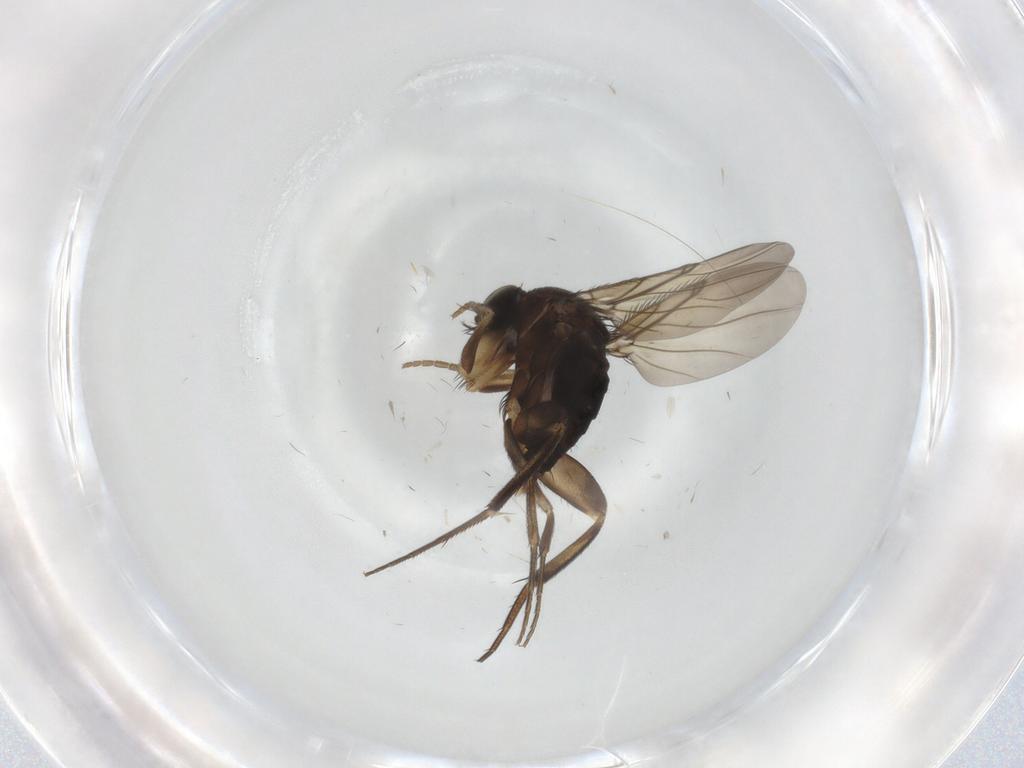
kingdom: Animalia
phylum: Arthropoda
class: Insecta
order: Diptera
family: Phoridae
